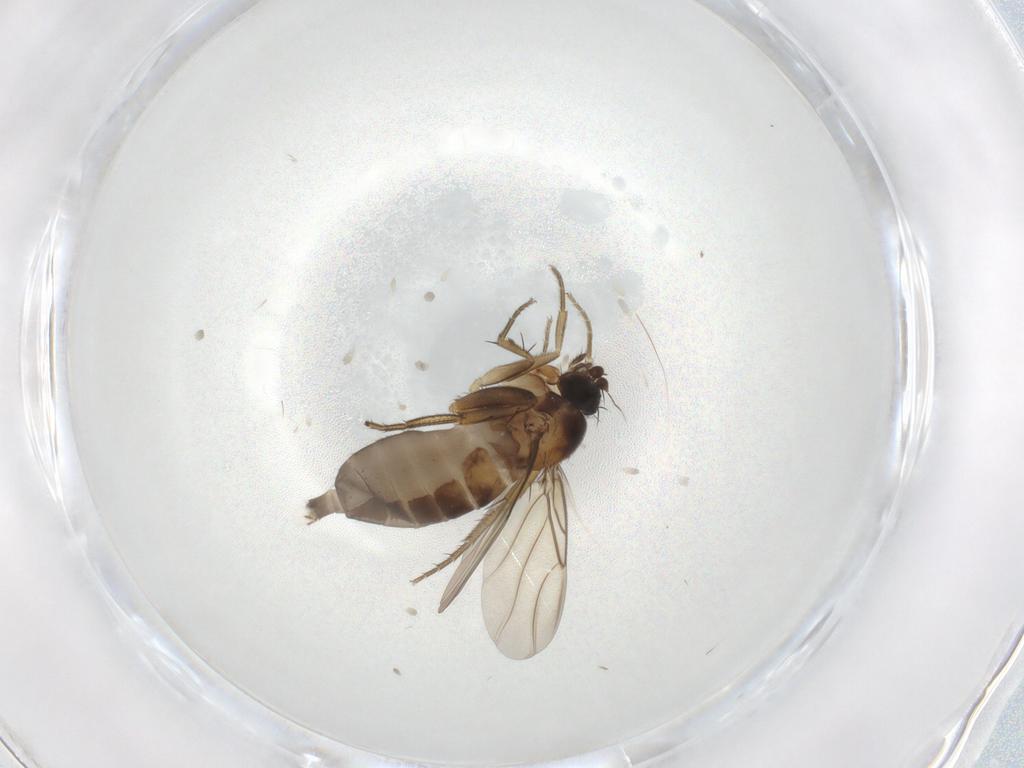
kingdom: Animalia
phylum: Arthropoda
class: Insecta
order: Diptera
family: Phoridae
